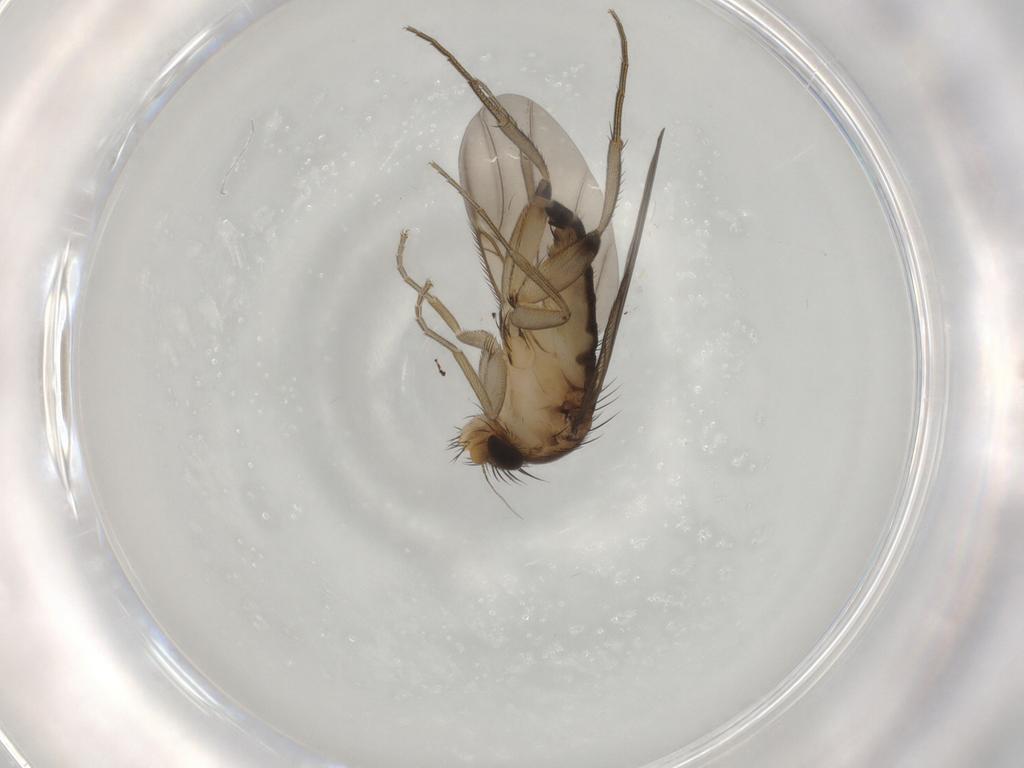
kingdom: Animalia
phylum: Arthropoda
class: Insecta
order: Diptera
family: Phoridae
